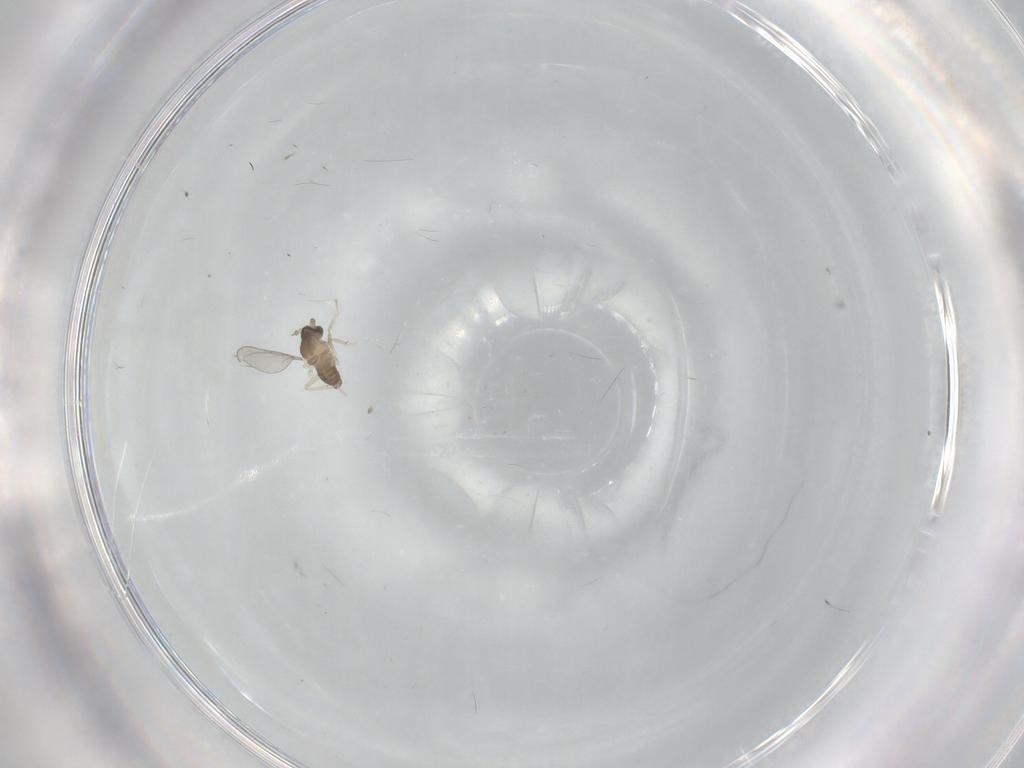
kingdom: Animalia
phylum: Arthropoda
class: Insecta
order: Diptera
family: Cecidomyiidae
